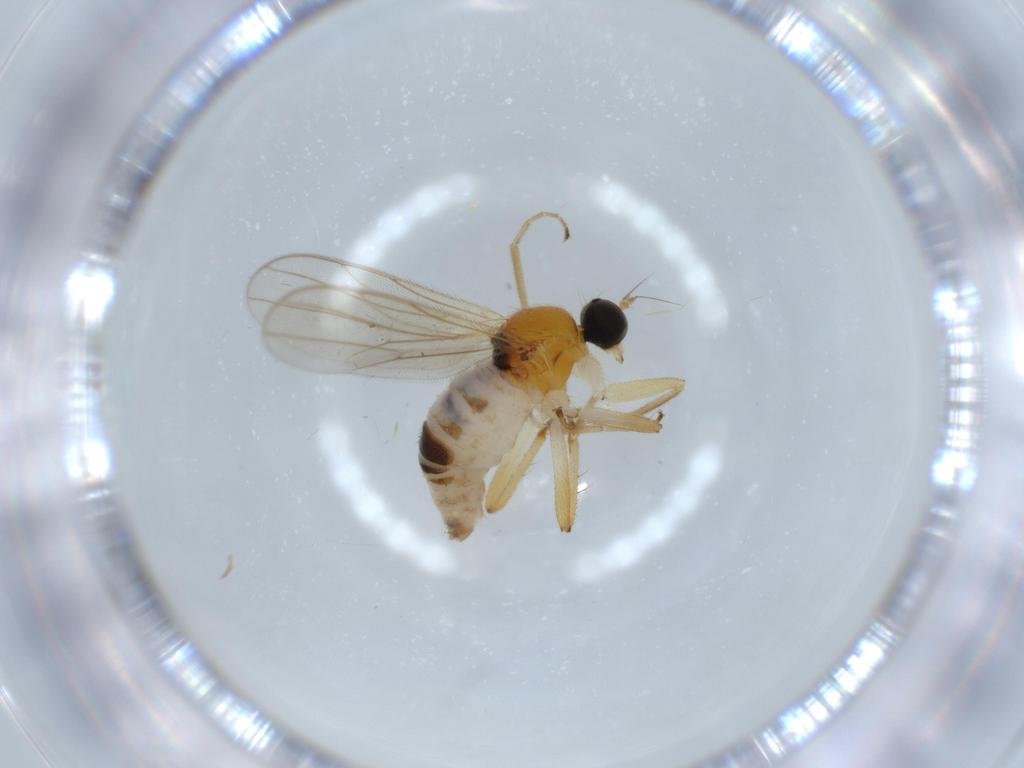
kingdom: Animalia
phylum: Arthropoda
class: Insecta
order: Diptera
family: Hybotidae
